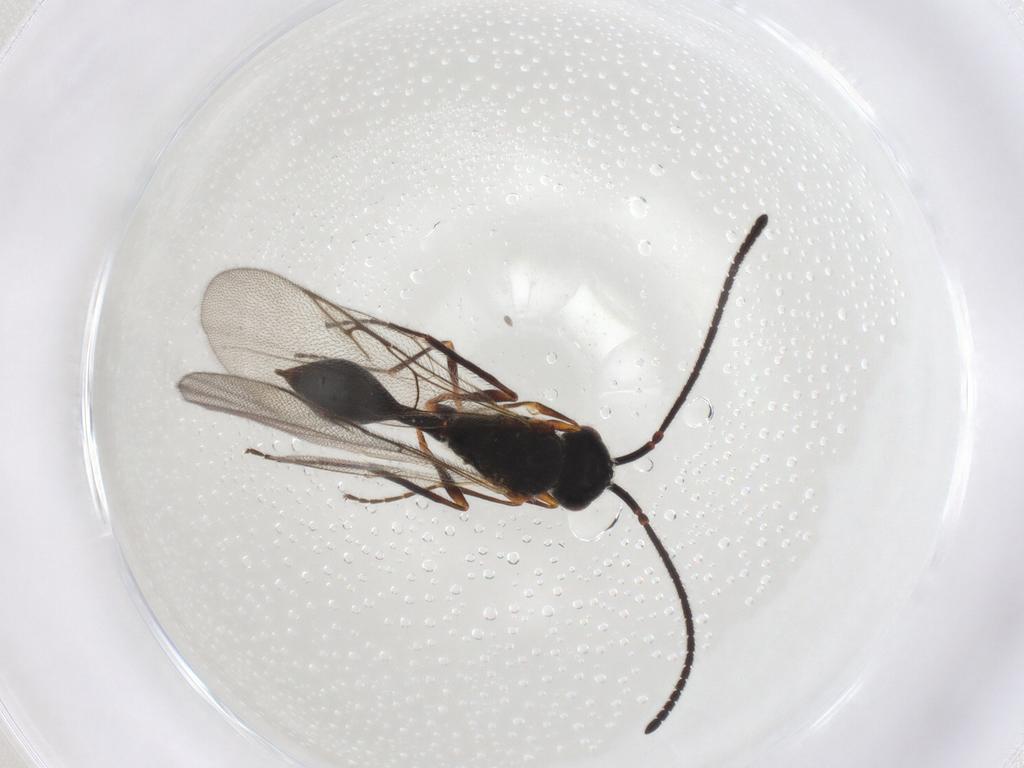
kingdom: Animalia
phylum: Arthropoda
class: Insecta
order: Hymenoptera
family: Diapriidae
